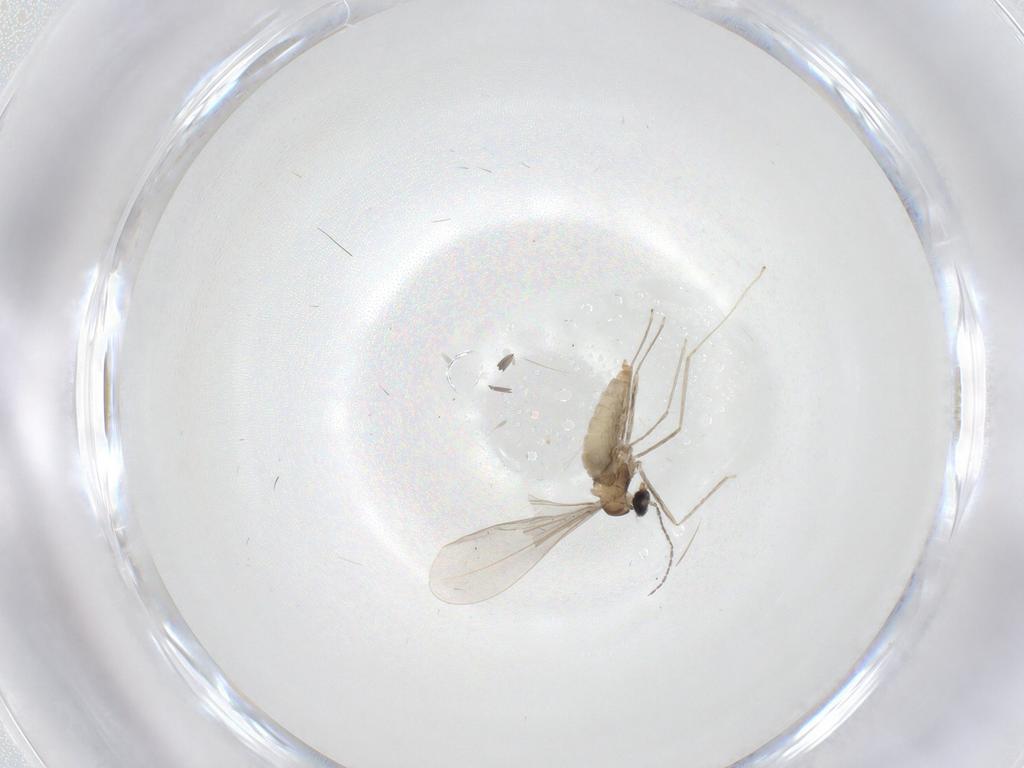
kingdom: Animalia
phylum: Arthropoda
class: Insecta
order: Diptera
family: Cecidomyiidae
